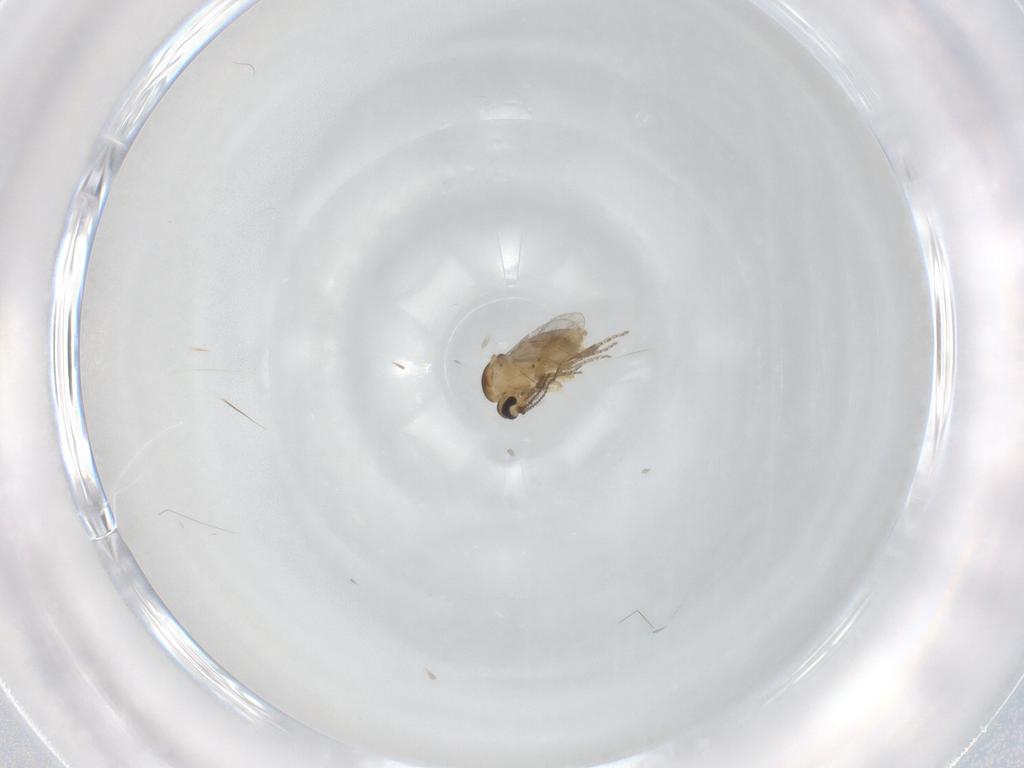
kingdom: Animalia
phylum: Arthropoda
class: Insecta
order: Diptera
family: Ceratopogonidae
